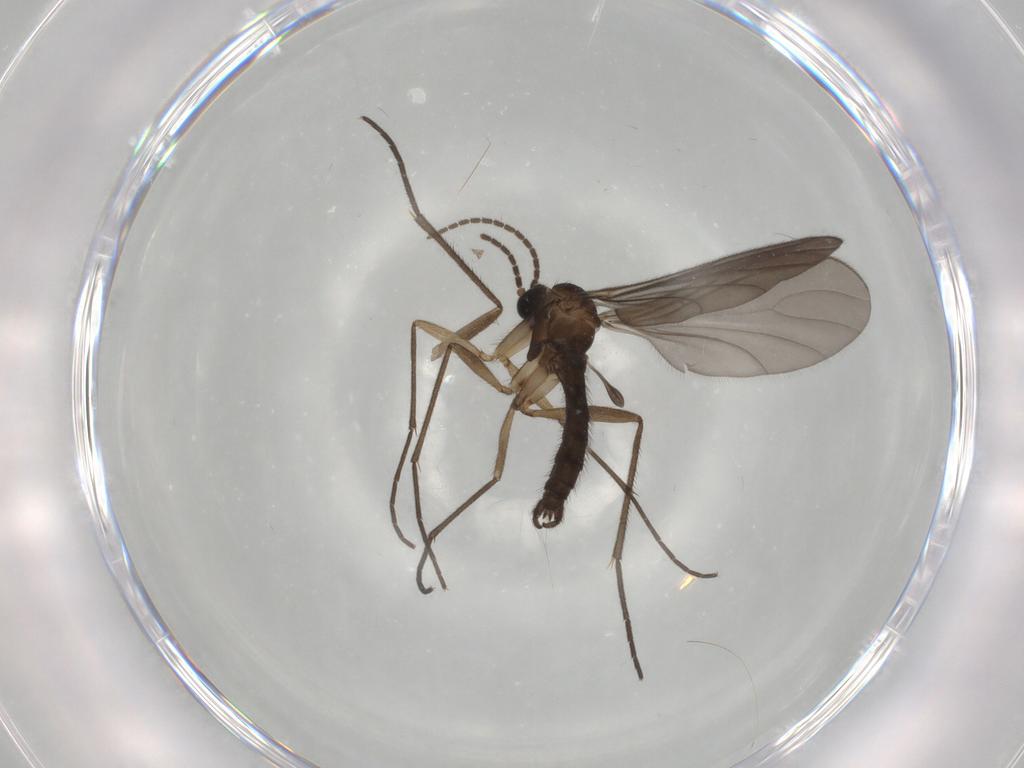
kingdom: Animalia
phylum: Arthropoda
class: Insecta
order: Diptera
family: Sciaridae
